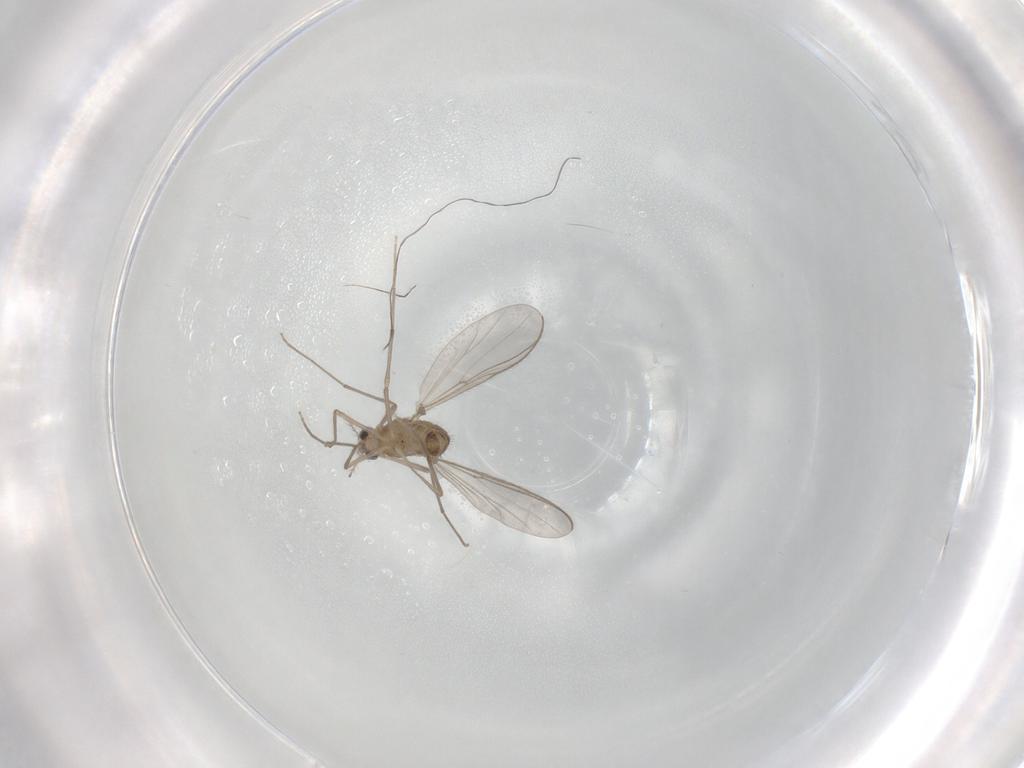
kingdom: Animalia
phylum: Arthropoda
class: Insecta
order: Diptera
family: Chironomidae
